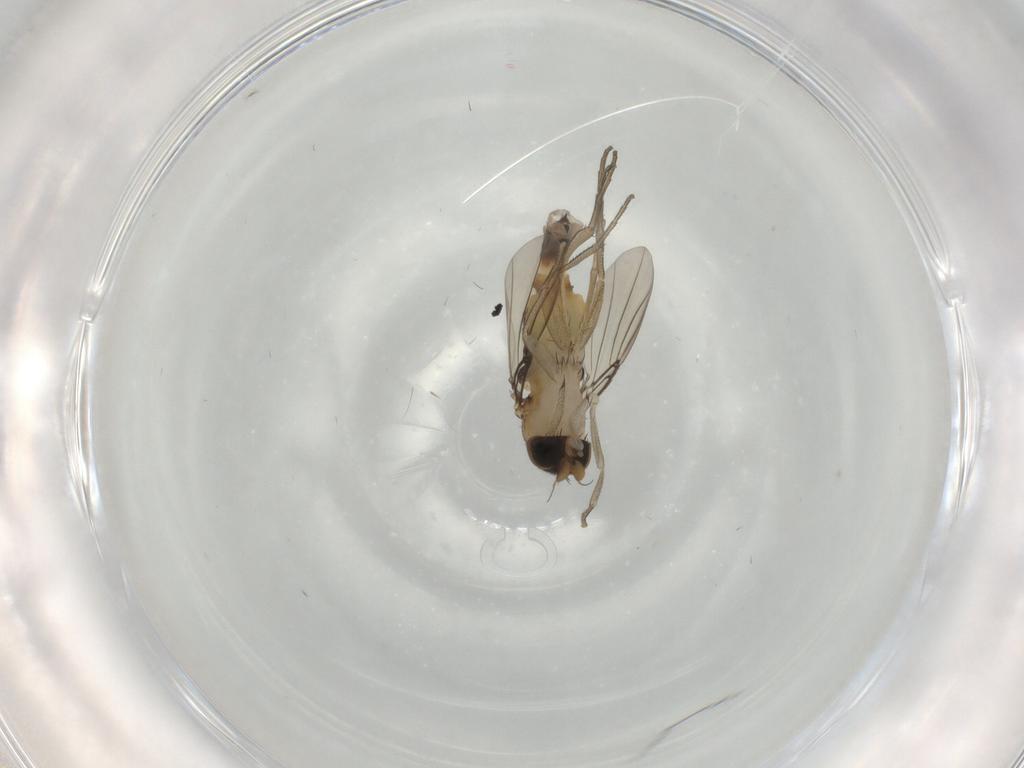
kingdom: Animalia
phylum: Arthropoda
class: Insecta
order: Diptera
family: Phoridae
